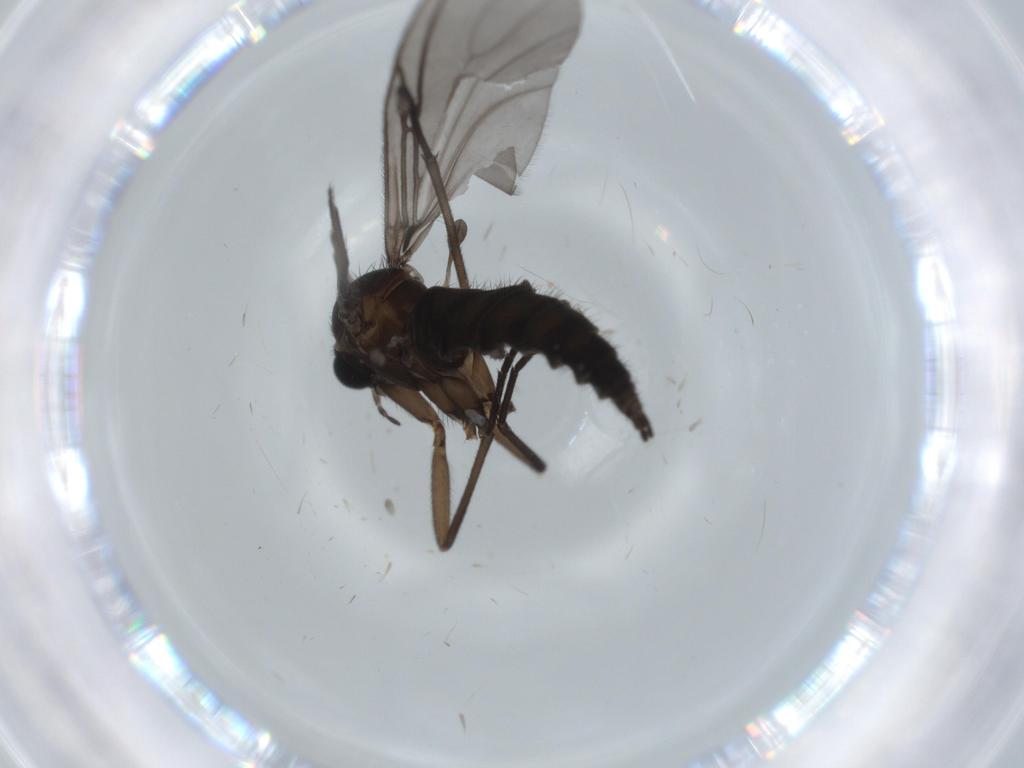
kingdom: Animalia
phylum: Arthropoda
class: Insecta
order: Diptera
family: Sciaridae
